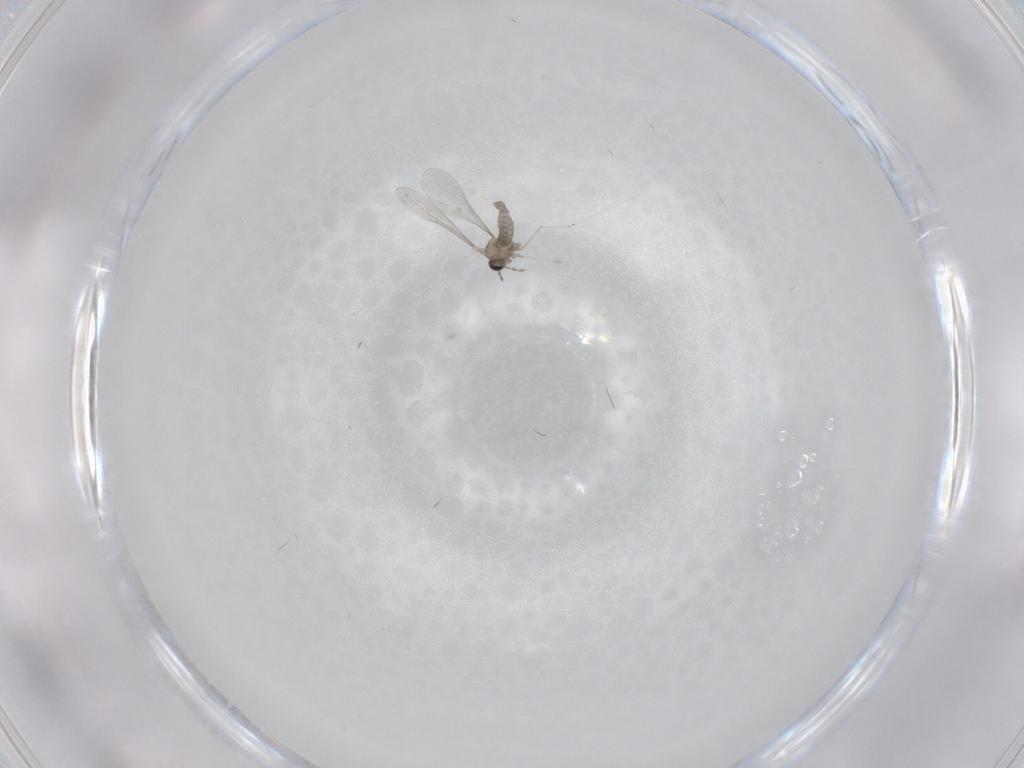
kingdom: Animalia
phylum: Arthropoda
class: Insecta
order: Diptera
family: Cecidomyiidae
